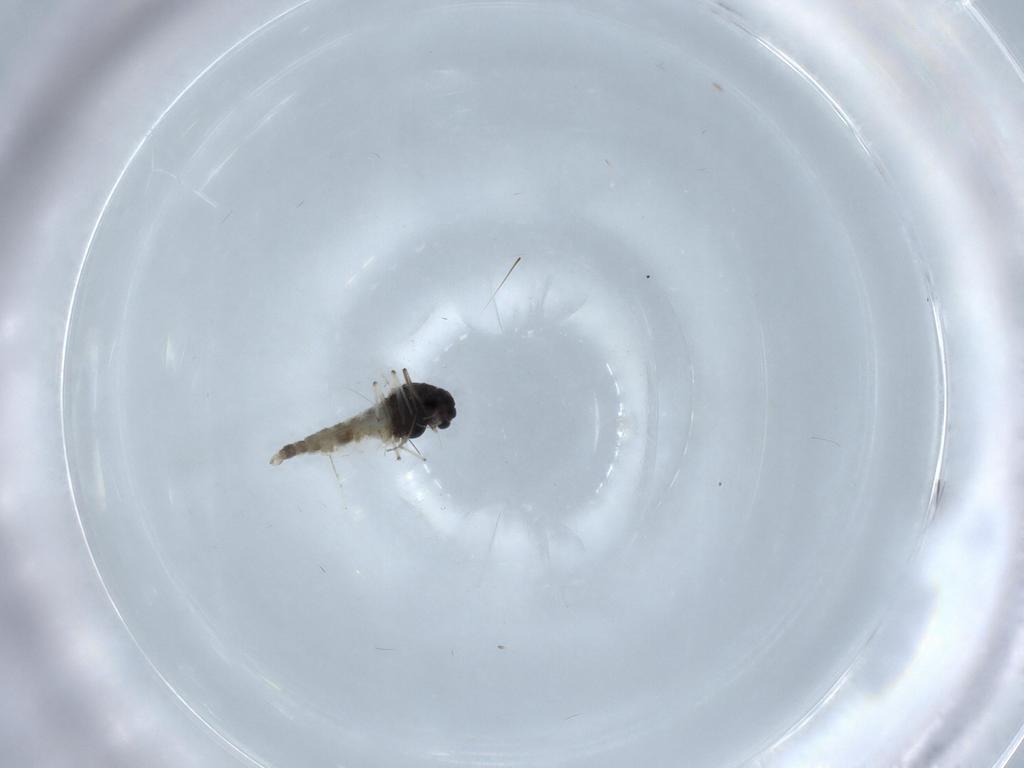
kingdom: Animalia
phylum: Arthropoda
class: Insecta
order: Diptera
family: Chironomidae
